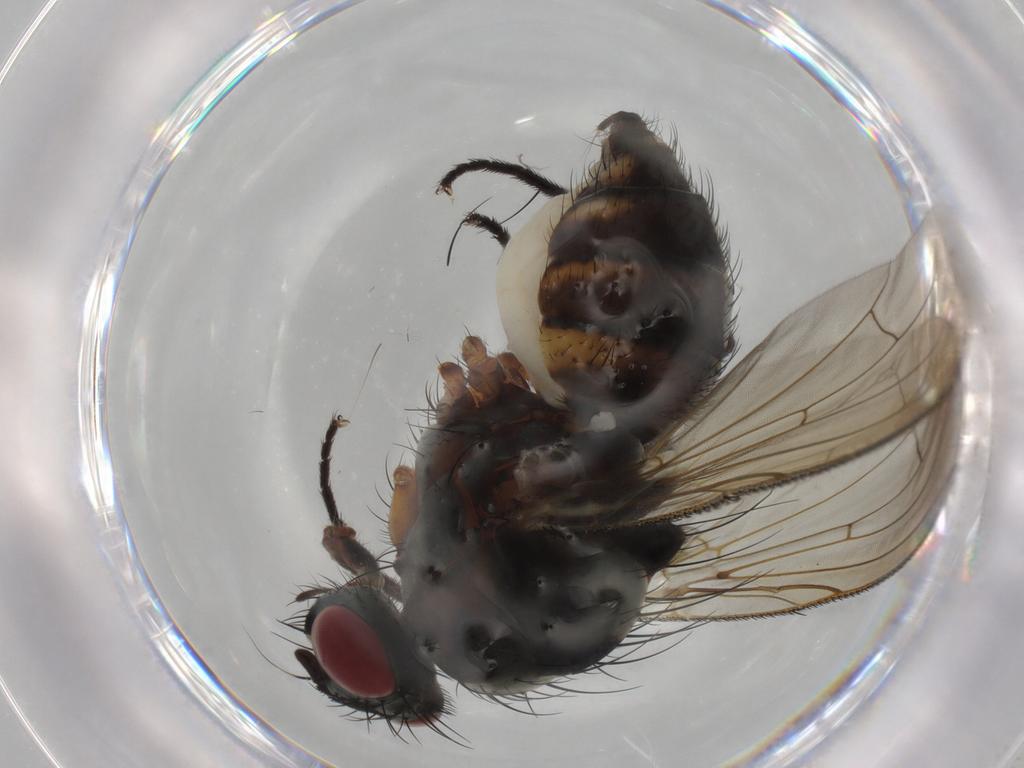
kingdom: Animalia
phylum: Arthropoda
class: Insecta
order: Diptera
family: Anthomyiidae
